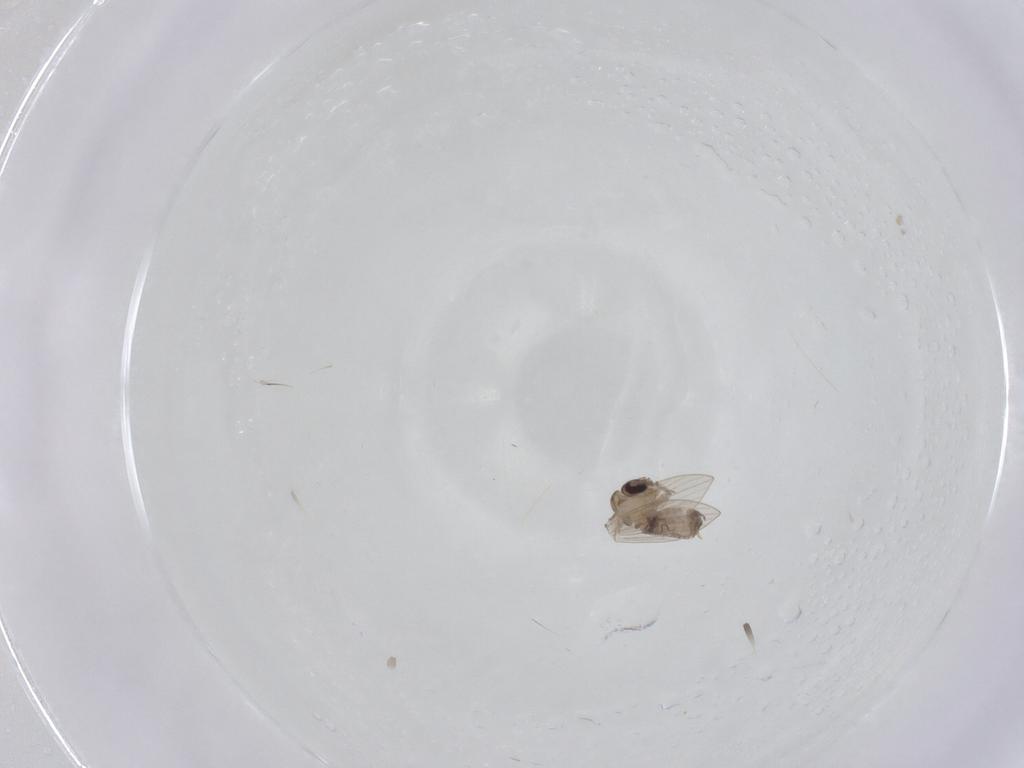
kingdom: Animalia
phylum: Arthropoda
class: Insecta
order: Diptera
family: Psychodidae
